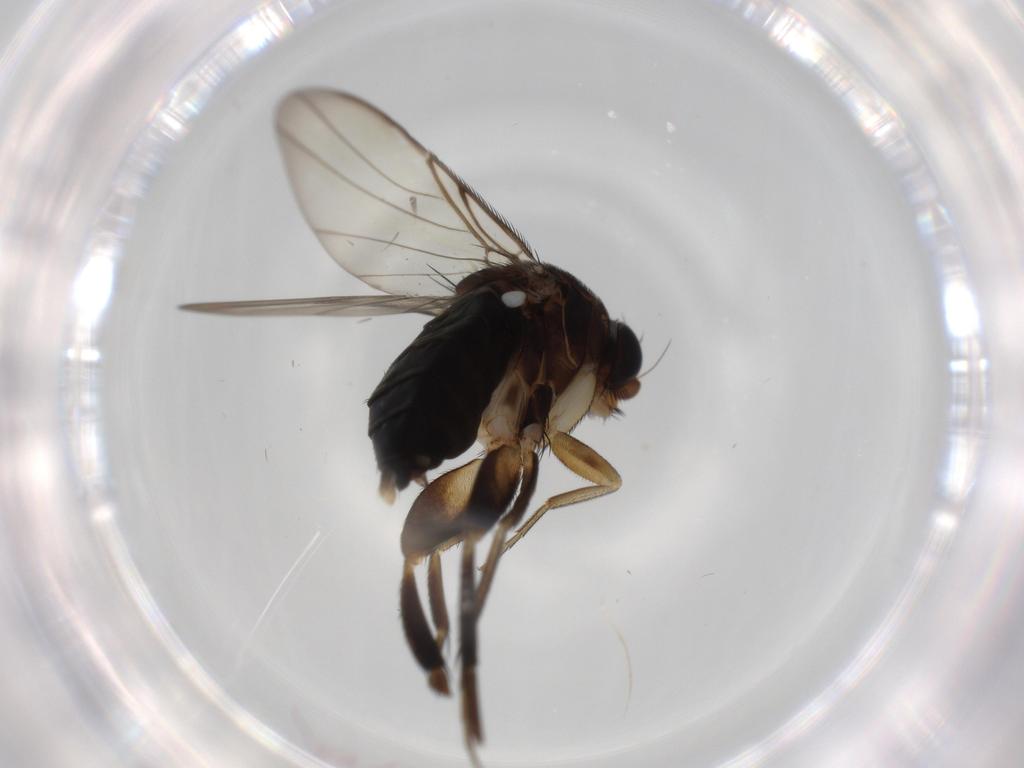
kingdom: Animalia
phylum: Arthropoda
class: Insecta
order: Diptera
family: Phoridae
